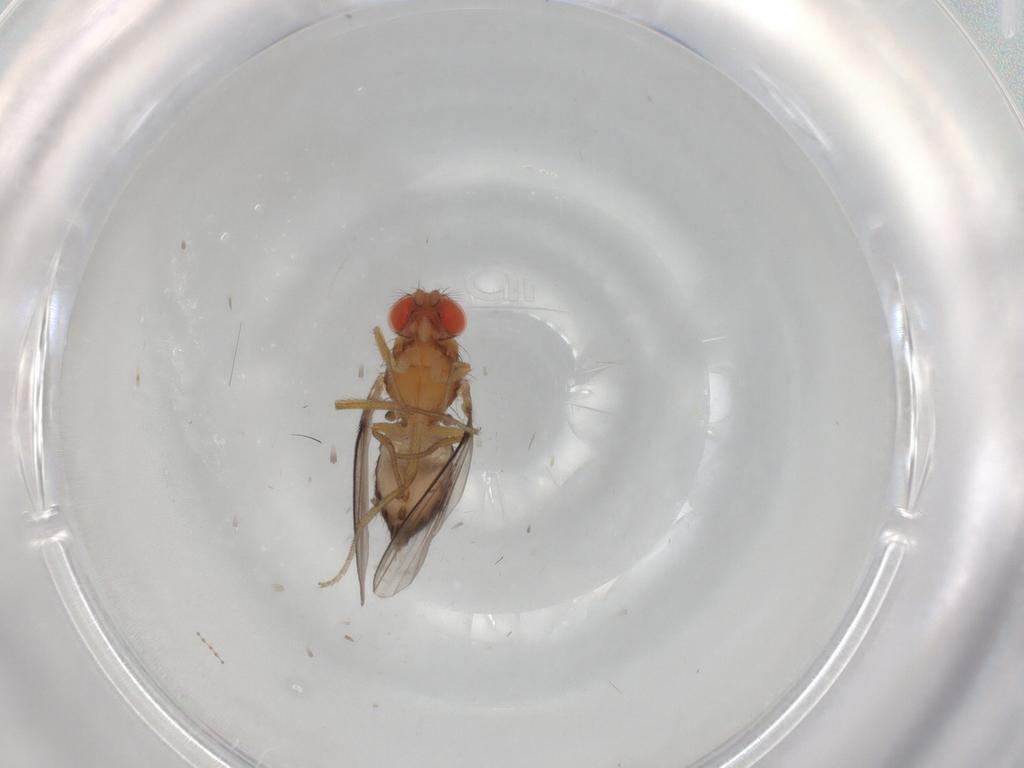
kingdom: Animalia
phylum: Arthropoda
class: Insecta
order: Diptera
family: Drosophilidae
